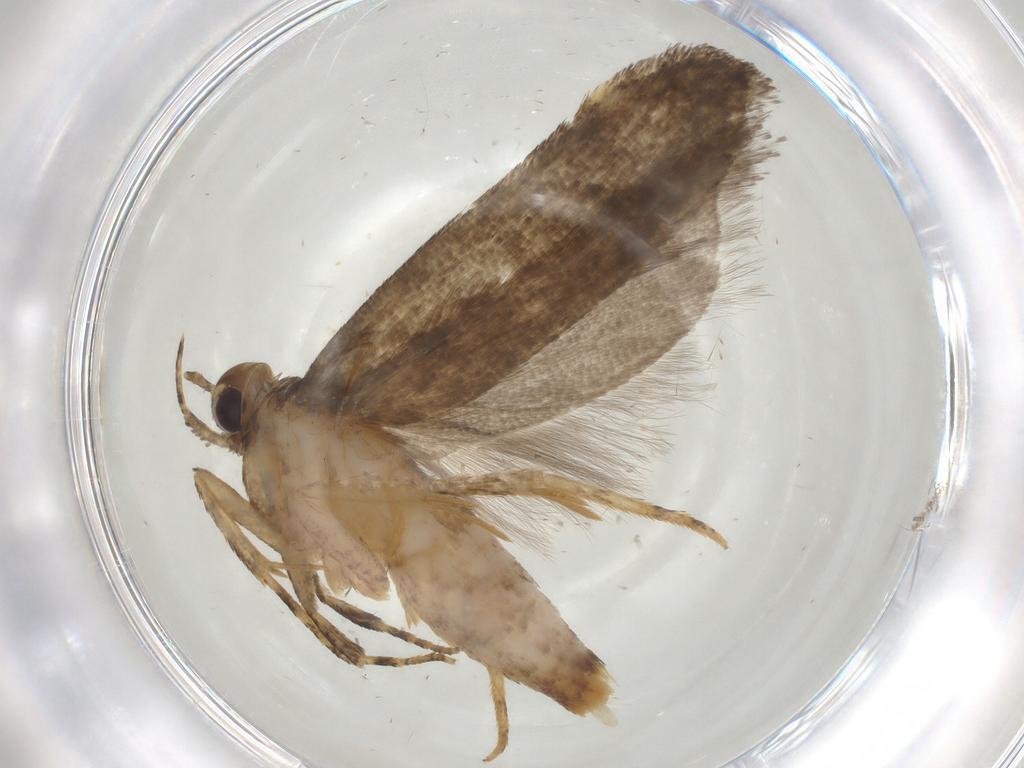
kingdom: Animalia
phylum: Arthropoda
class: Insecta
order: Lepidoptera
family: Gelechiidae
